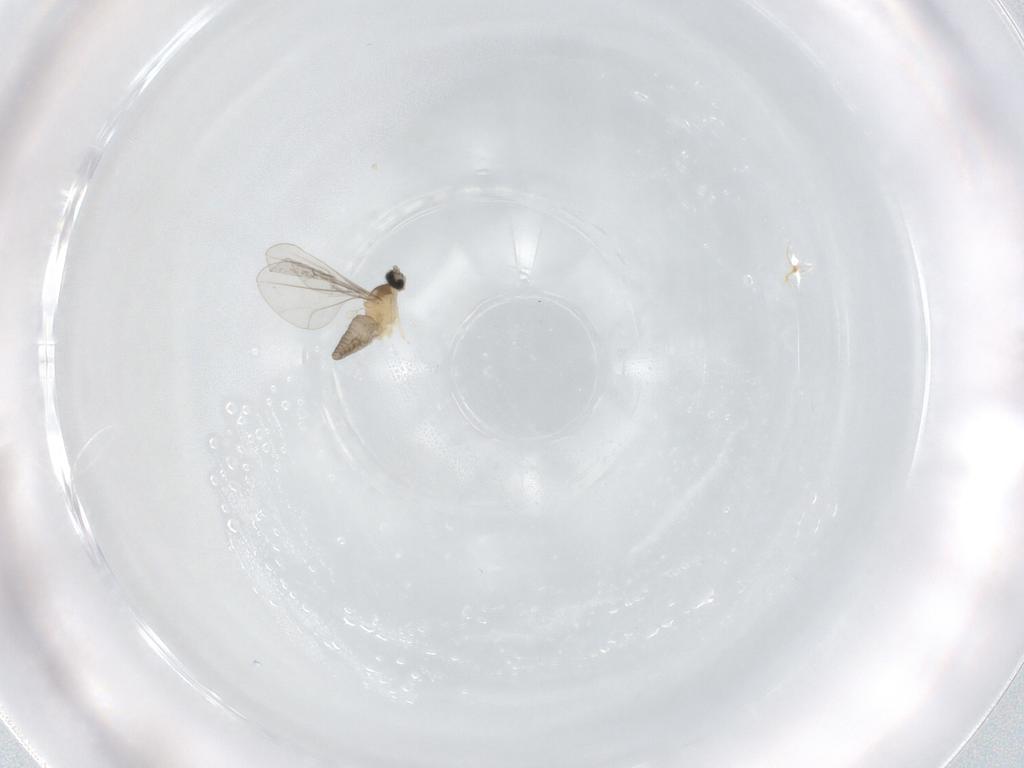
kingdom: Animalia
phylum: Arthropoda
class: Insecta
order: Diptera
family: Cecidomyiidae
